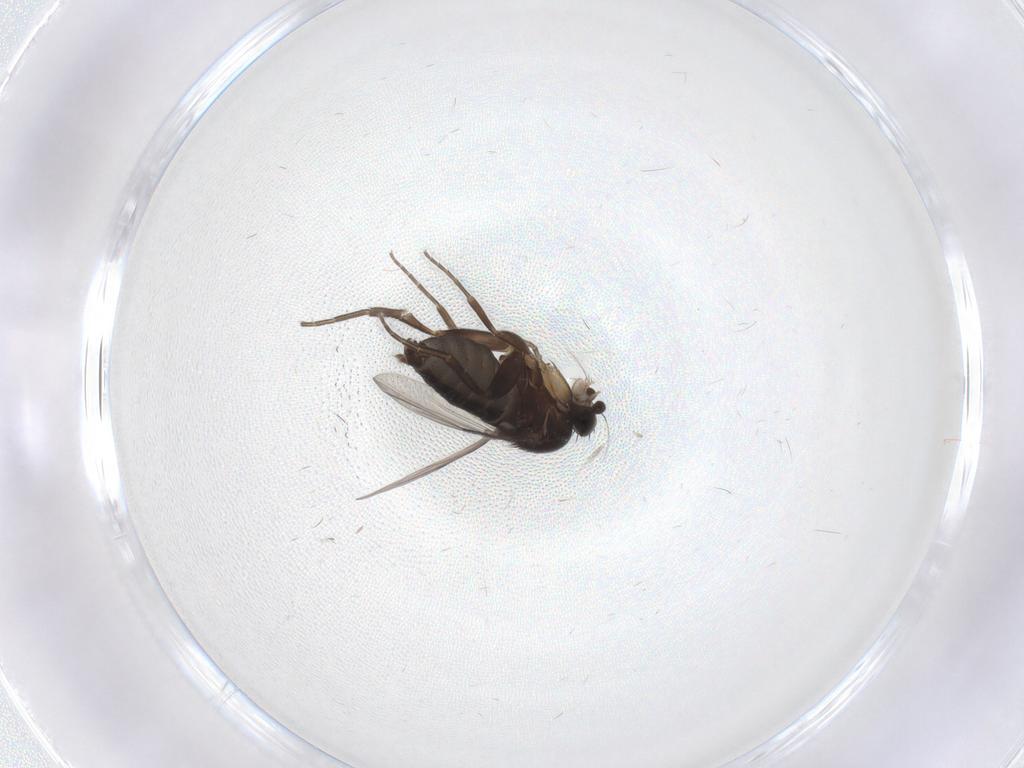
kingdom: Animalia
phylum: Arthropoda
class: Insecta
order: Diptera
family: Phoridae
